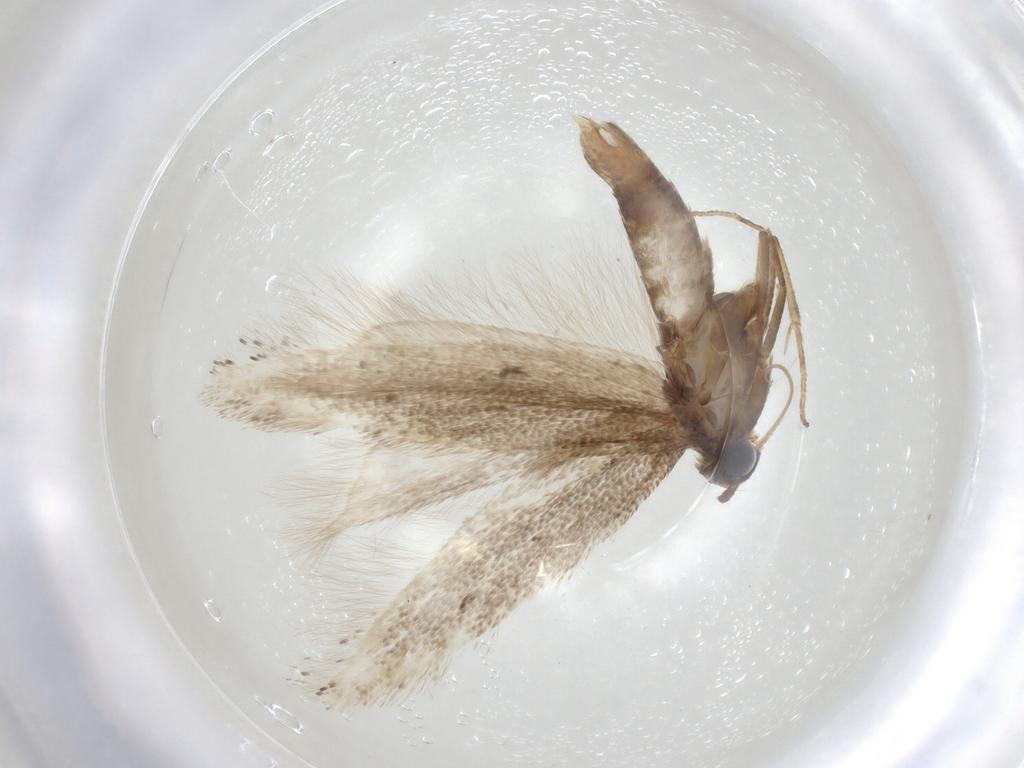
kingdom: Animalia
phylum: Arthropoda
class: Insecta
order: Lepidoptera
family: Gelechiidae
